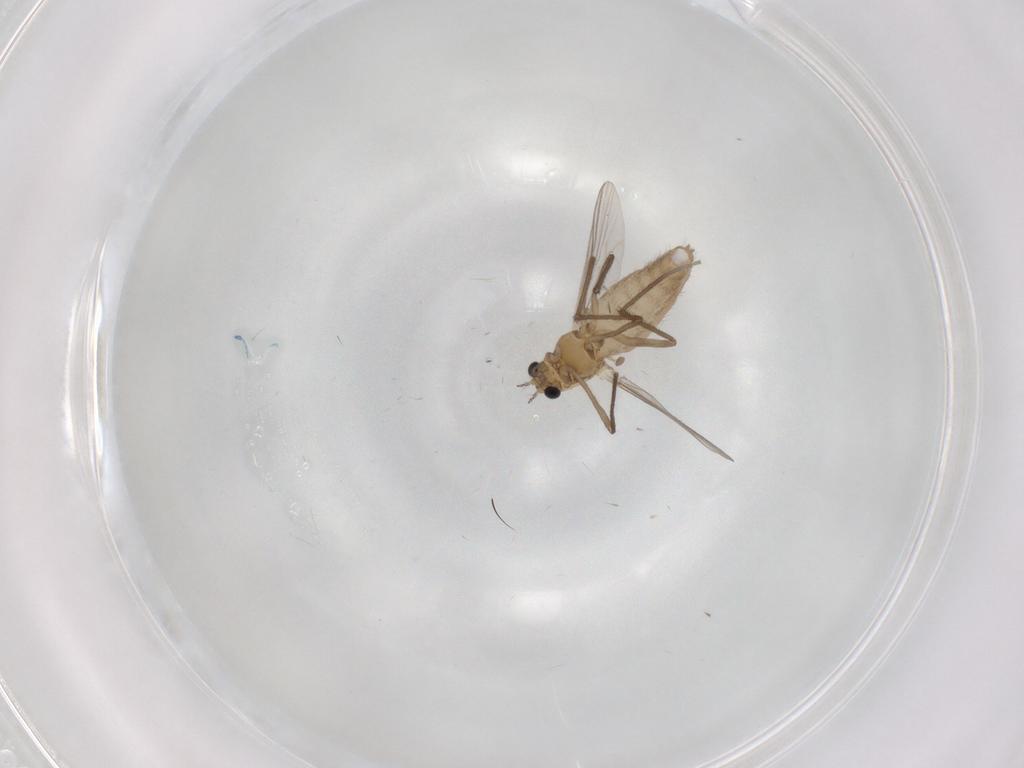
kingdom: Animalia
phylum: Arthropoda
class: Insecta
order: Diptera
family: Chironomidae
